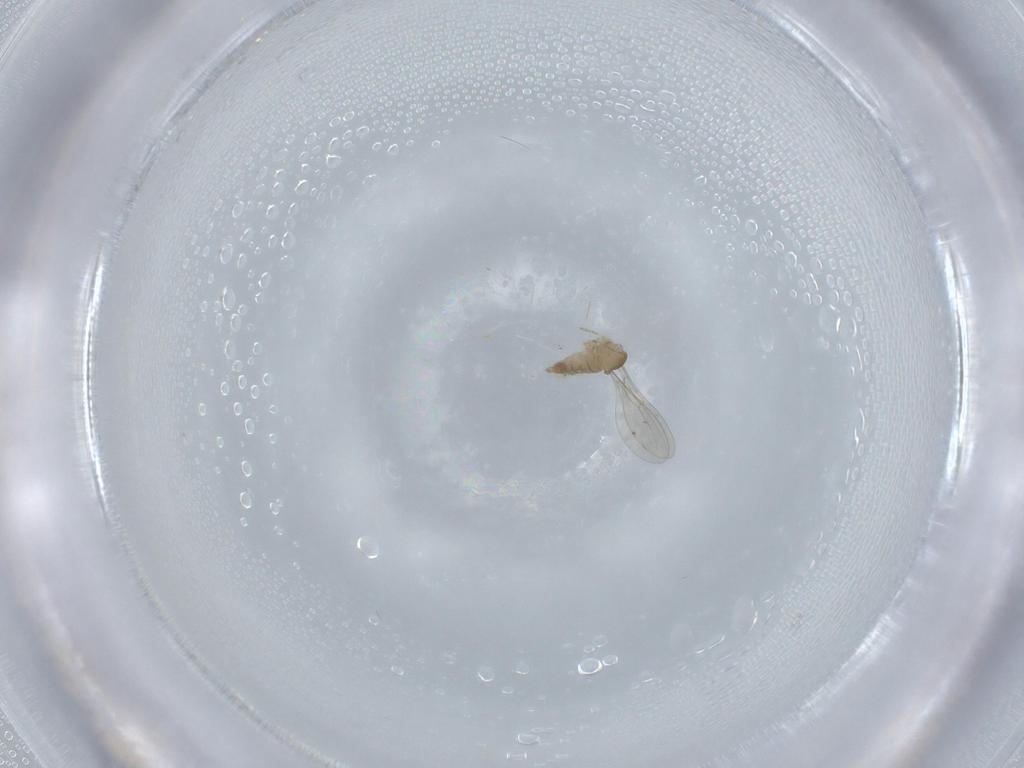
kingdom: Animalia
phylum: Arthropoda
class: Insecta
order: Diptera
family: Cecidomyiidae
